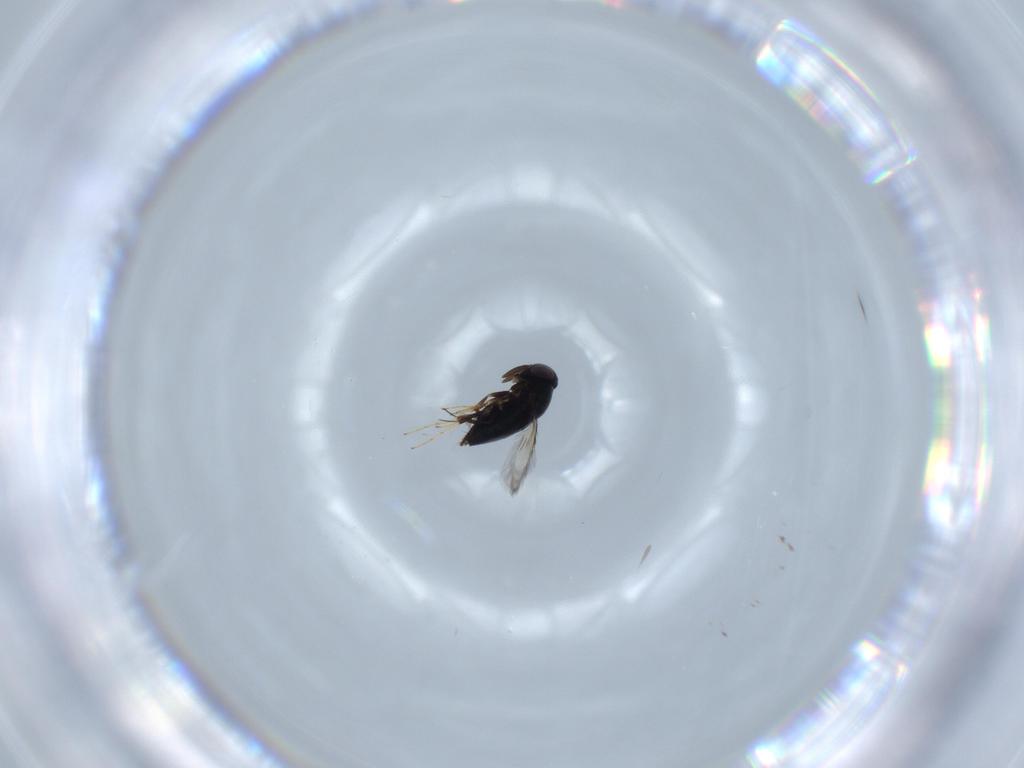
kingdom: Animalia
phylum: Arthropoda
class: Insecta
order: Hymenoptera
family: Signiphoridae
